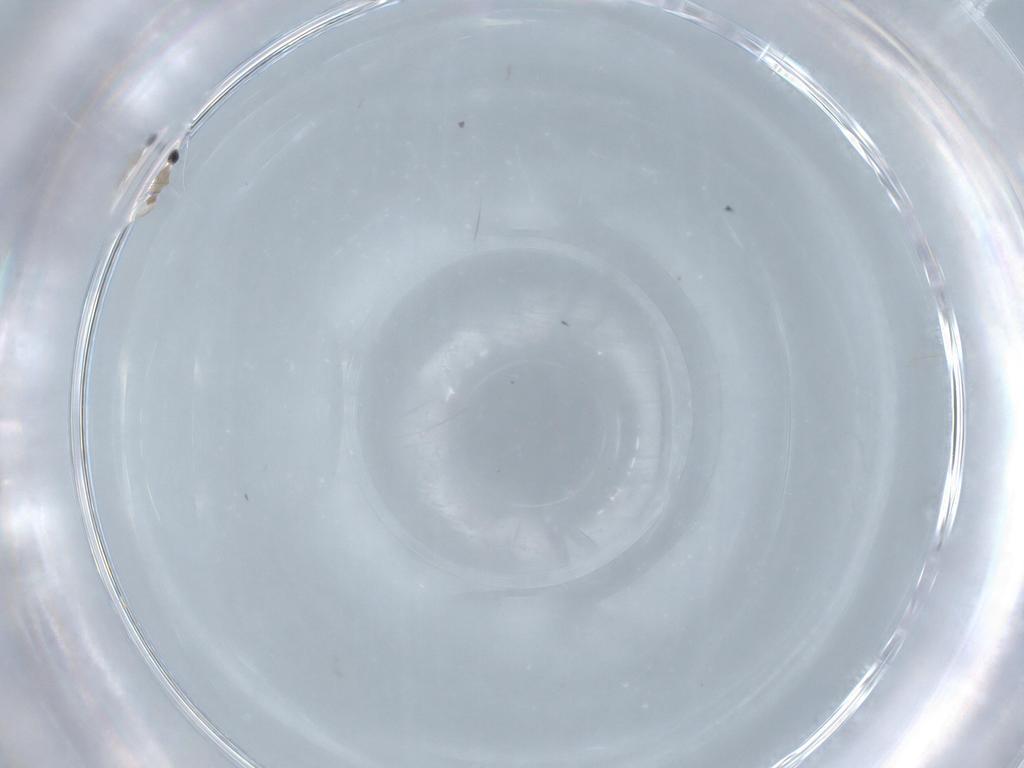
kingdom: Animalia
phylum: Arthropoda
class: Insecta
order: Diptera
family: Cecidomyiidae
